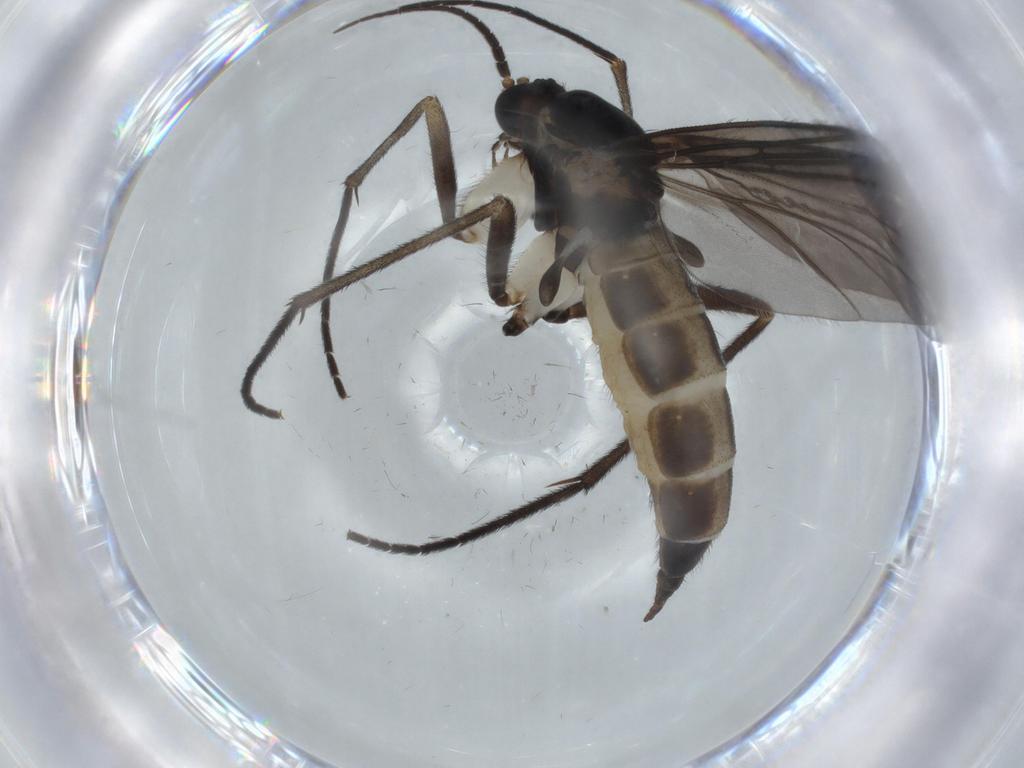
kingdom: Animalia
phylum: Arthropoda
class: Insecta
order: Diptera
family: Sciaridae
